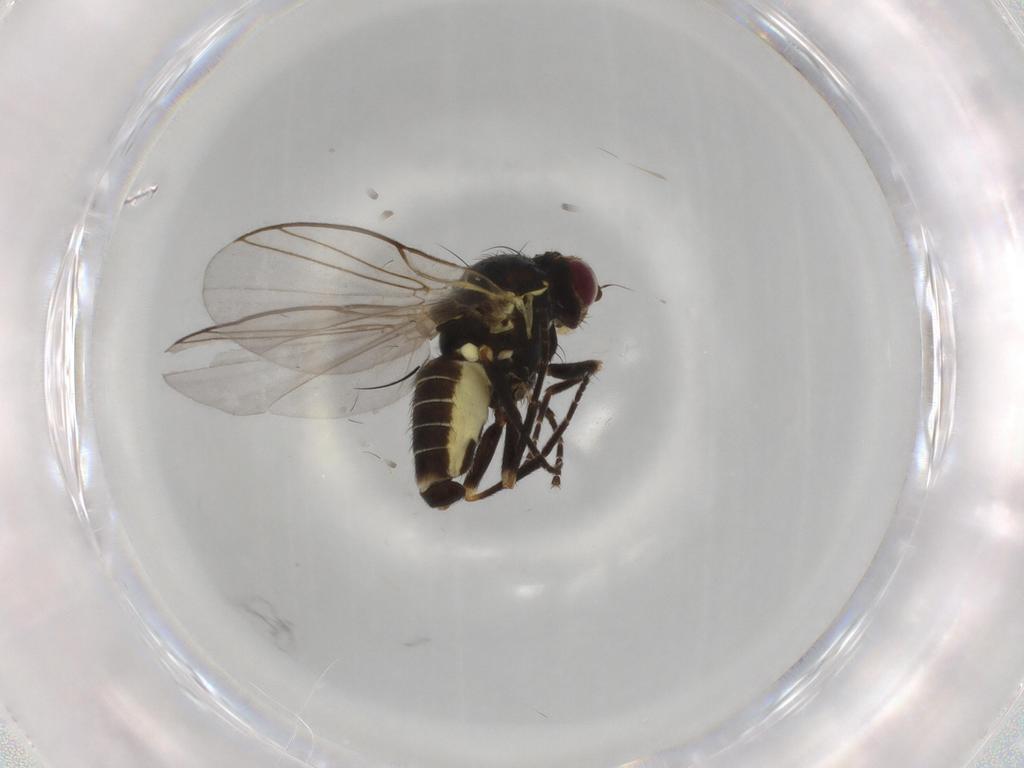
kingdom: Animalia
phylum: Arthropoda
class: Insecta
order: Diptera
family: Agromyzidae
